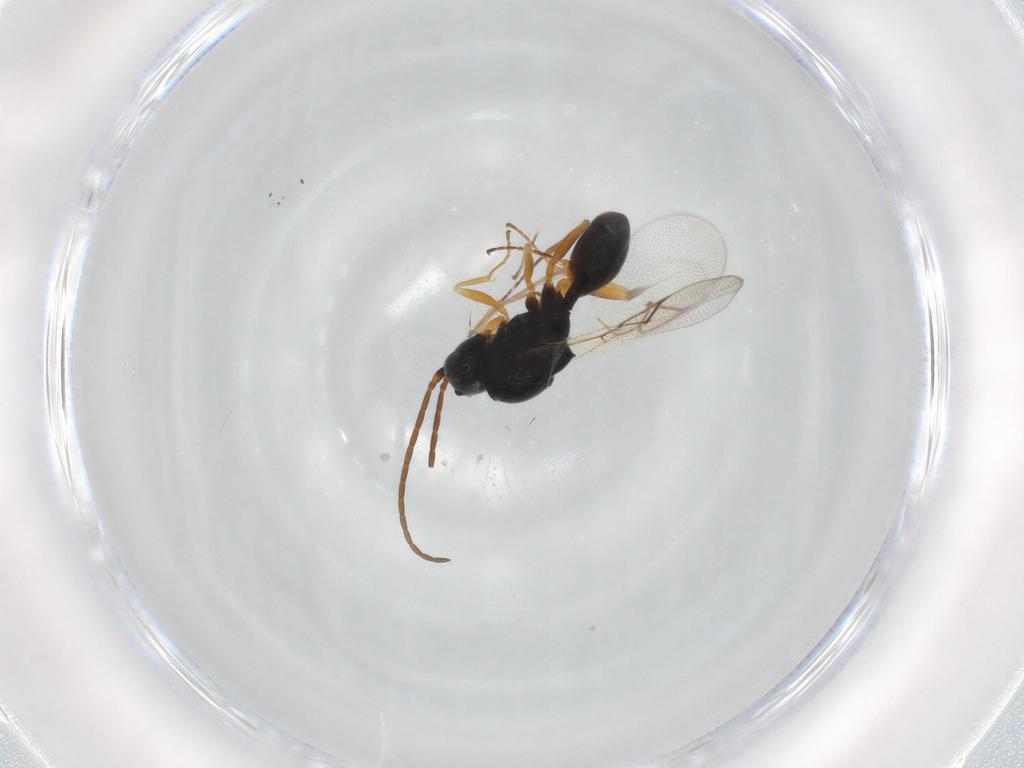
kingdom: Animalia
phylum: Arthropoda
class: Insecta
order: Hymenoptera
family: Figitidae
